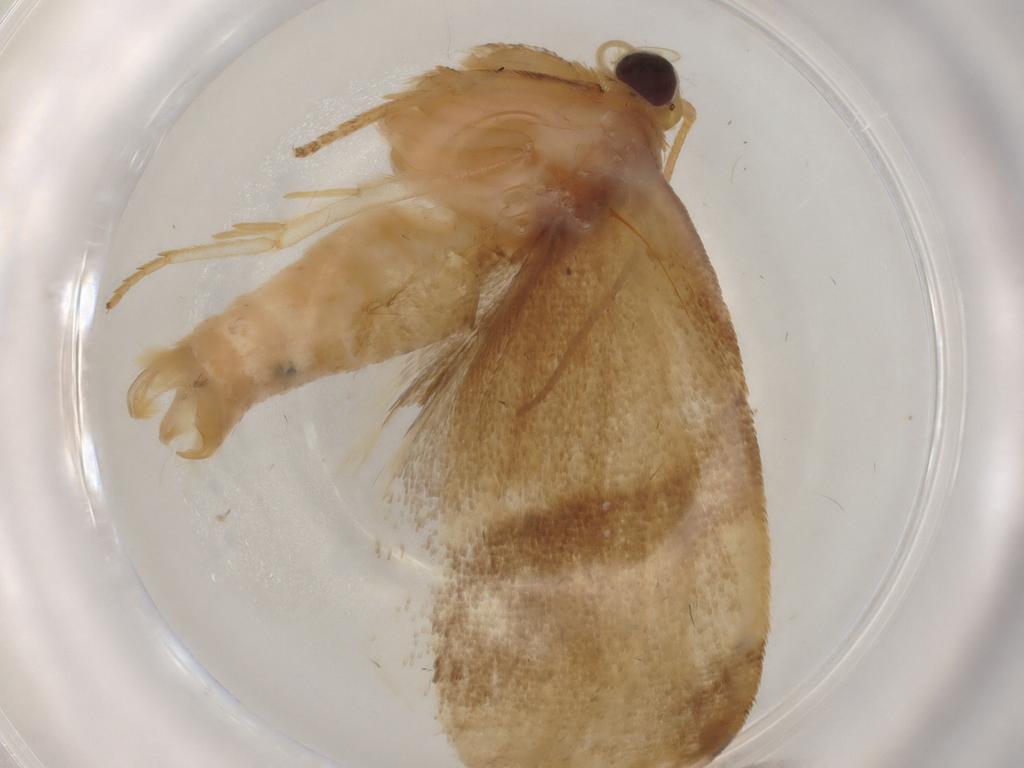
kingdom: Animalia
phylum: Arthropoda
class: Insecta
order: Lepidoptera
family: Tortricidae
